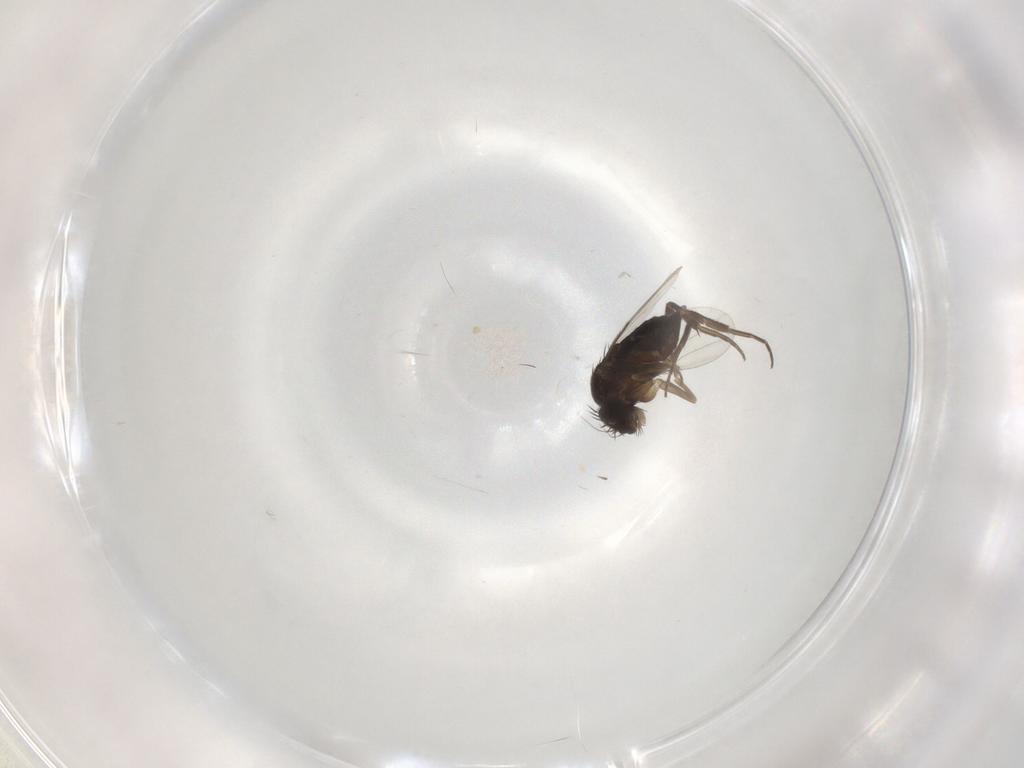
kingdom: Animalia
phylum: Arthropoda
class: Insecta
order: Diptera
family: Phoridae
